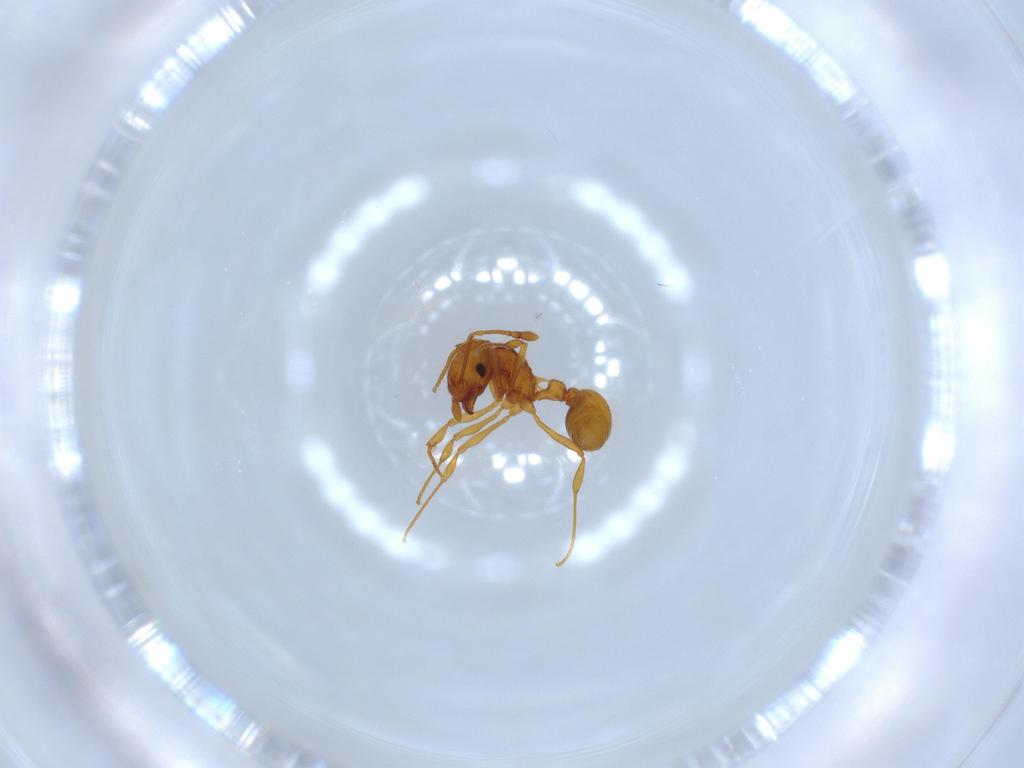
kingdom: Animalia
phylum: Arthropoda
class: Insecta
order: Hymenoptera
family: Formicidae
